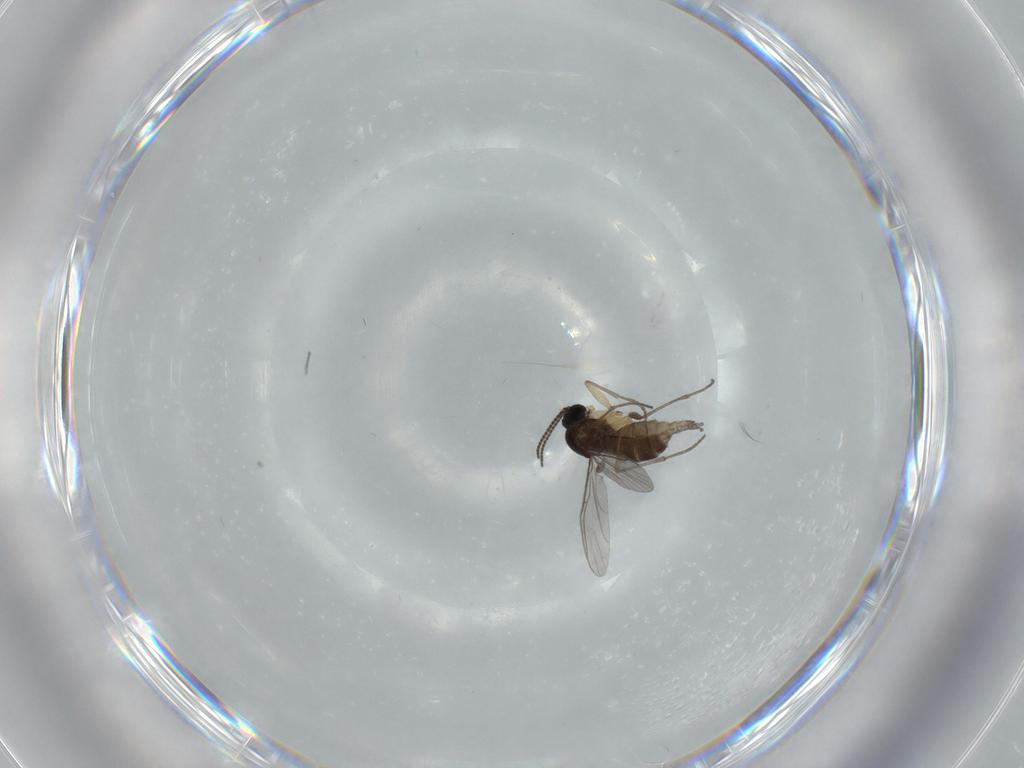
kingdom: Animalia
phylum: Arthropoda
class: Insecta
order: Diptera
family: Sciaridae
